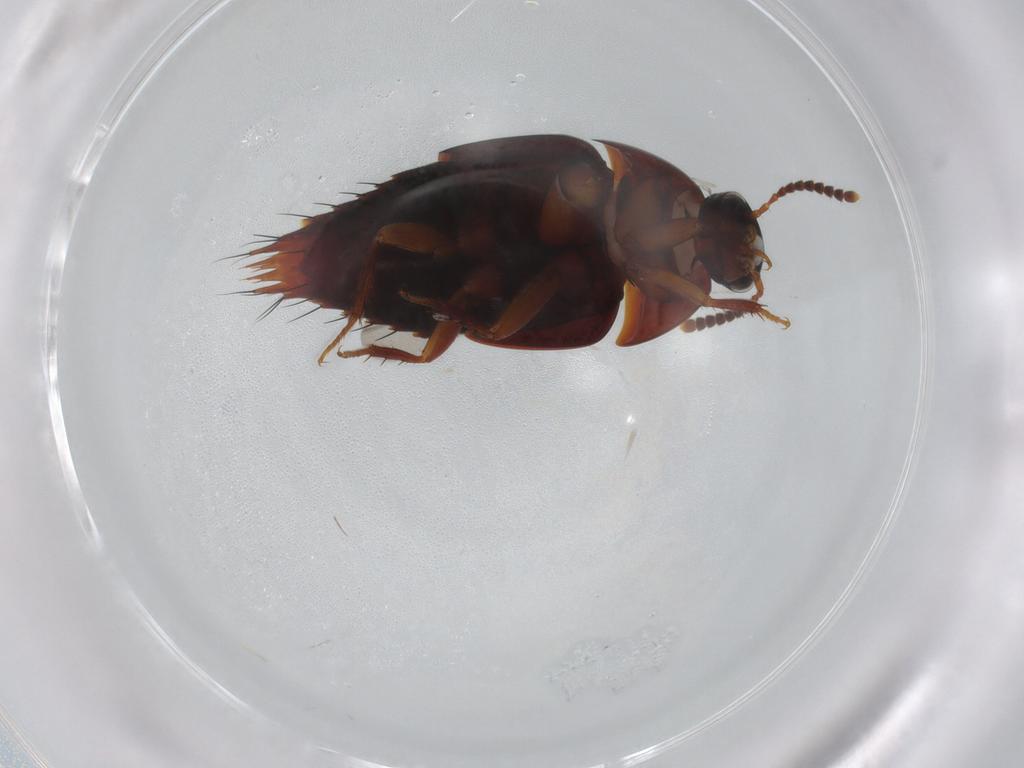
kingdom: Animalia
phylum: Arthropoda
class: Insecta
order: Coleoptera
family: Staphylinidae
